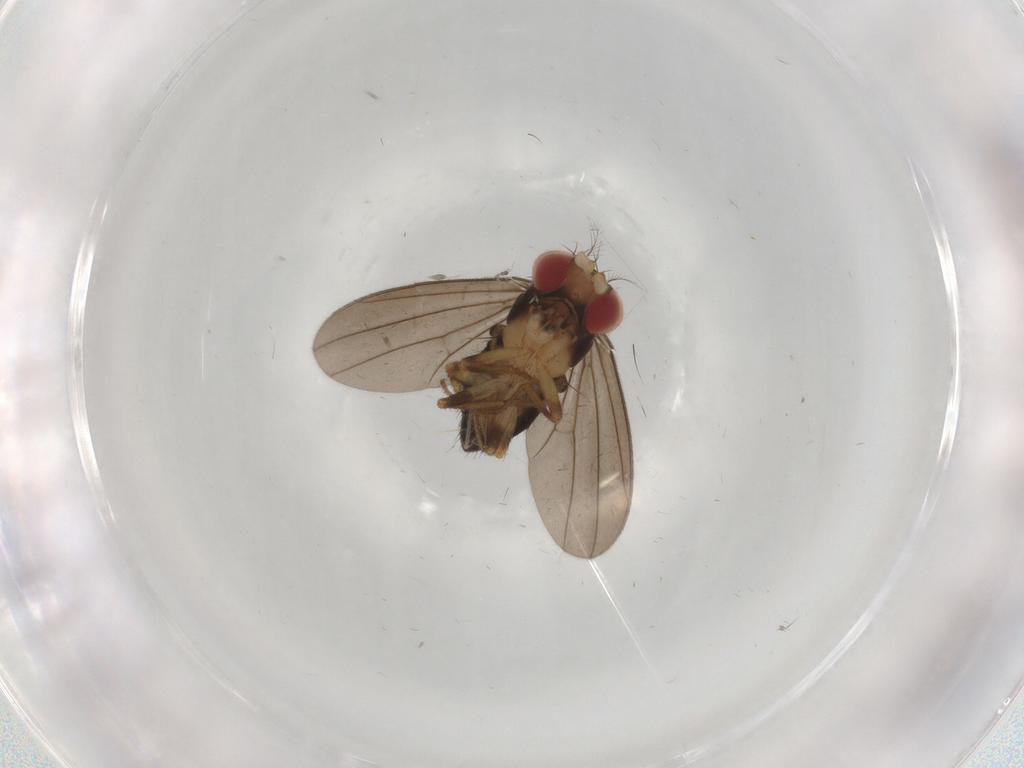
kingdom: Animalia
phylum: Arthropoda
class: Insecta
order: Diptera
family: Drosophilidae
